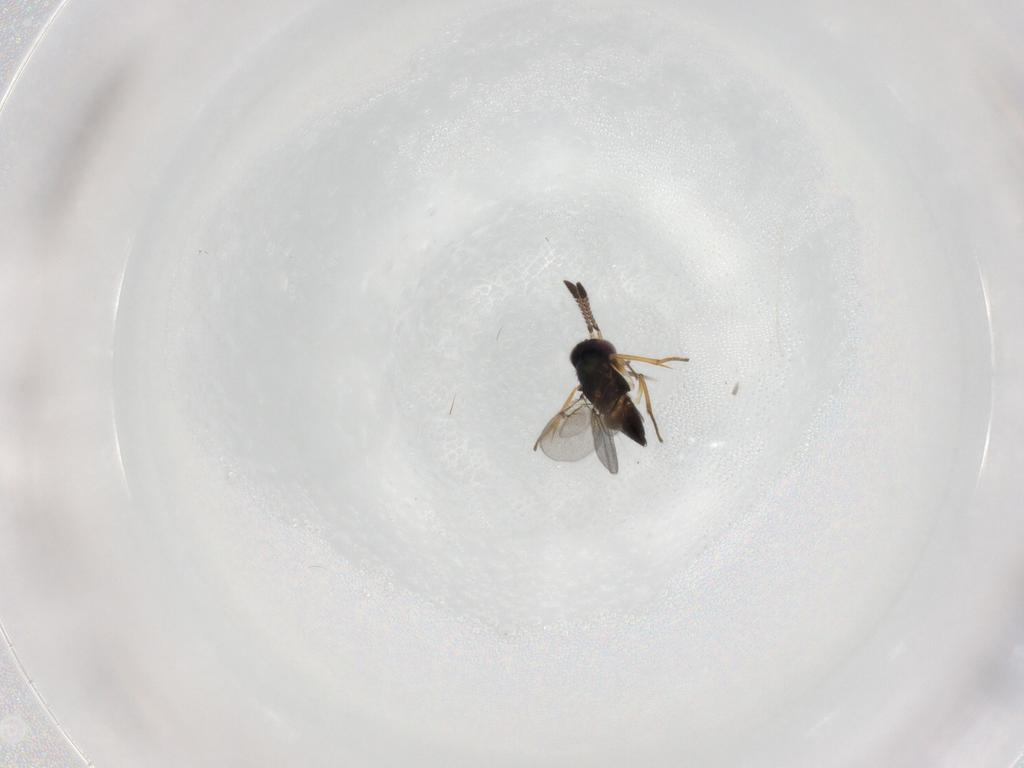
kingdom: Animalia
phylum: Arthropoda
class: Insecta
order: Hymenoptera
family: Encyrtidae
